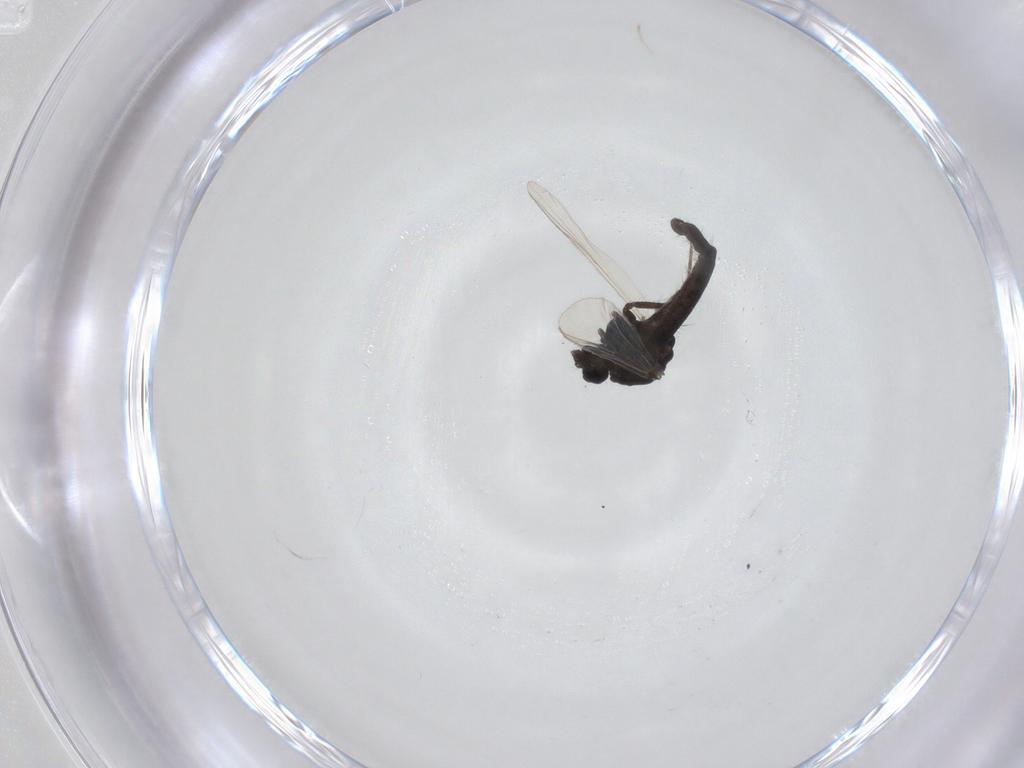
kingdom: Animalia
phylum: Arthropoda
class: Insecta
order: Diptera
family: Chironomidae
